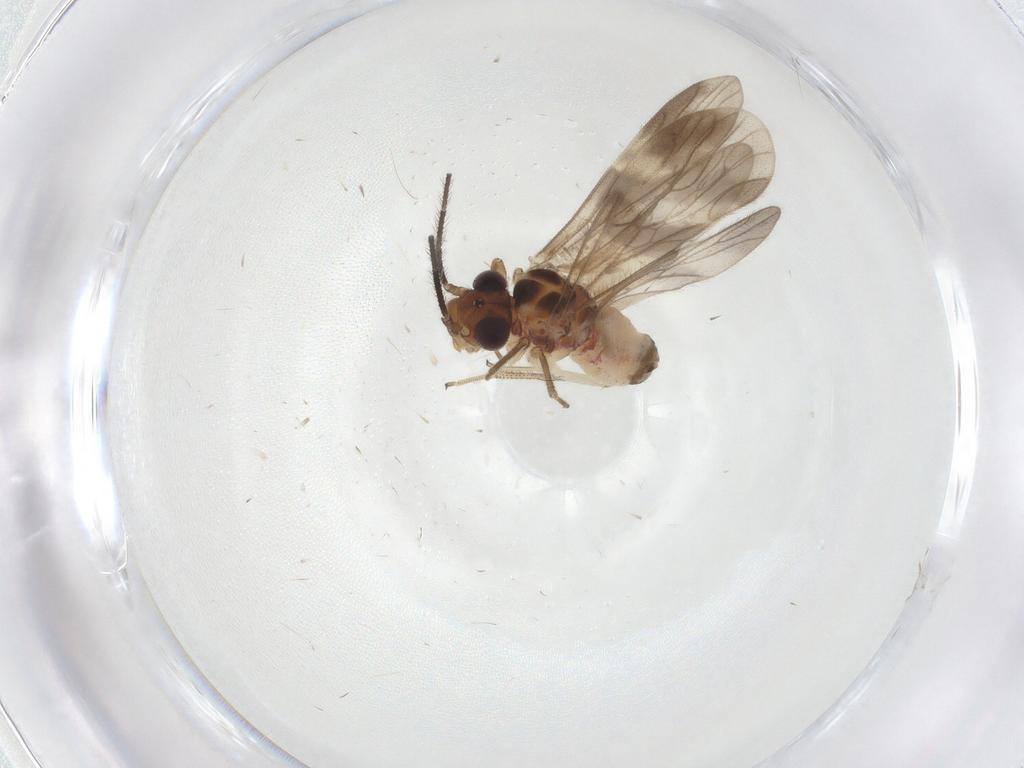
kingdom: Animalia
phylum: Arthropoda
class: Insecta
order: Psocodea
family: Amphipsocidae
